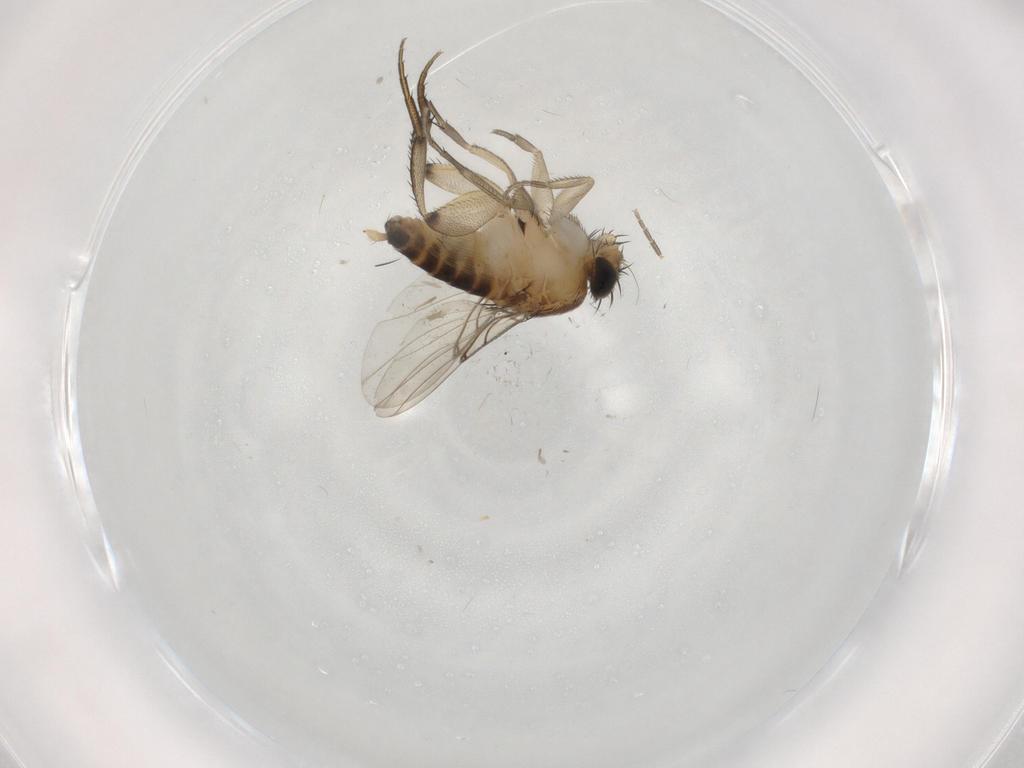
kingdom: Animalia
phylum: Arthropoda
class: Insecta
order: Diptera
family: Phoridae
